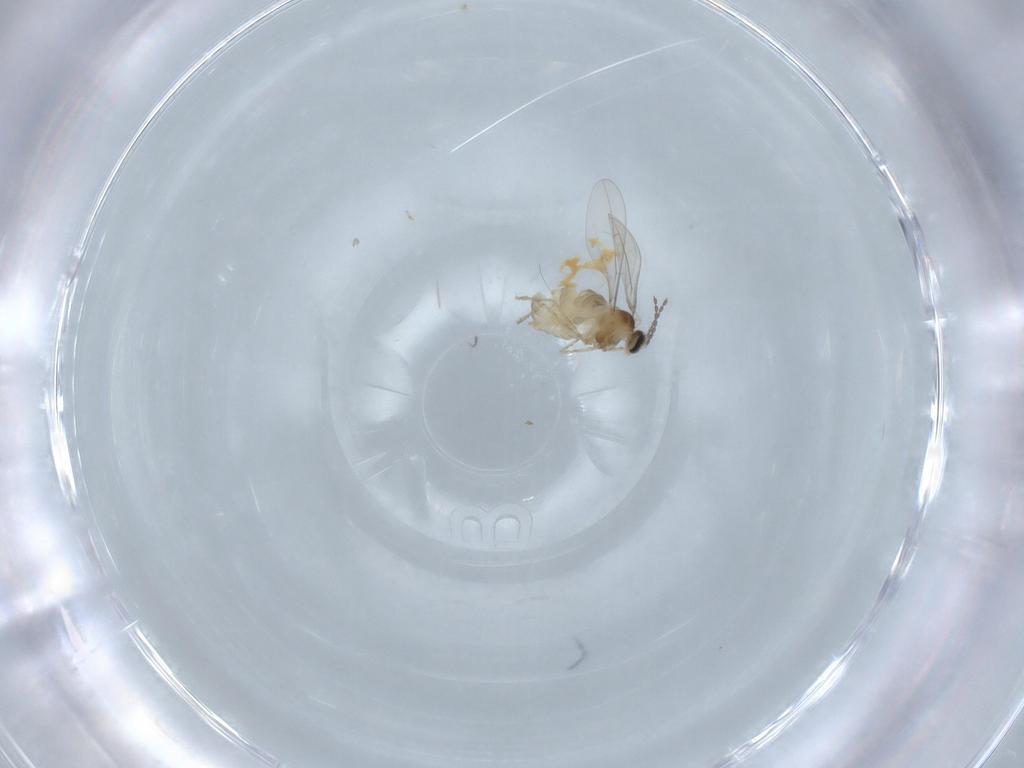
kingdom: Animalia
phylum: Arthropoda
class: Insecta
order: Diptera
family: Cecidomyiidae
